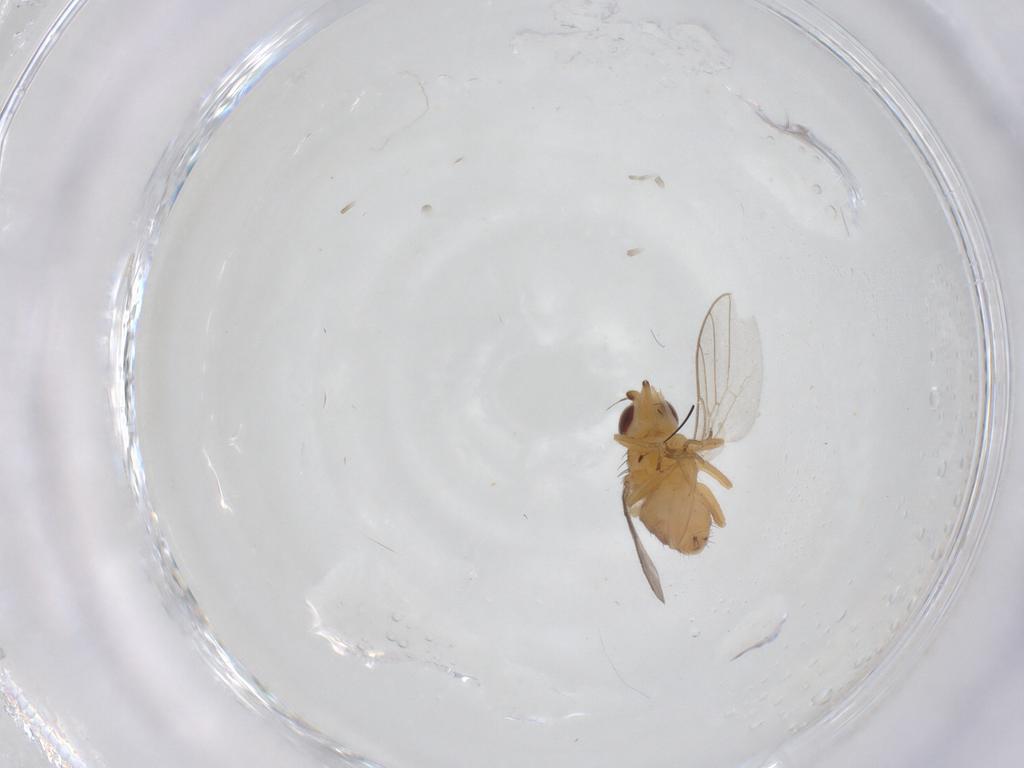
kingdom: Animalia
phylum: Arthropoda
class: Insecta
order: Diptera
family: Chloropidae
